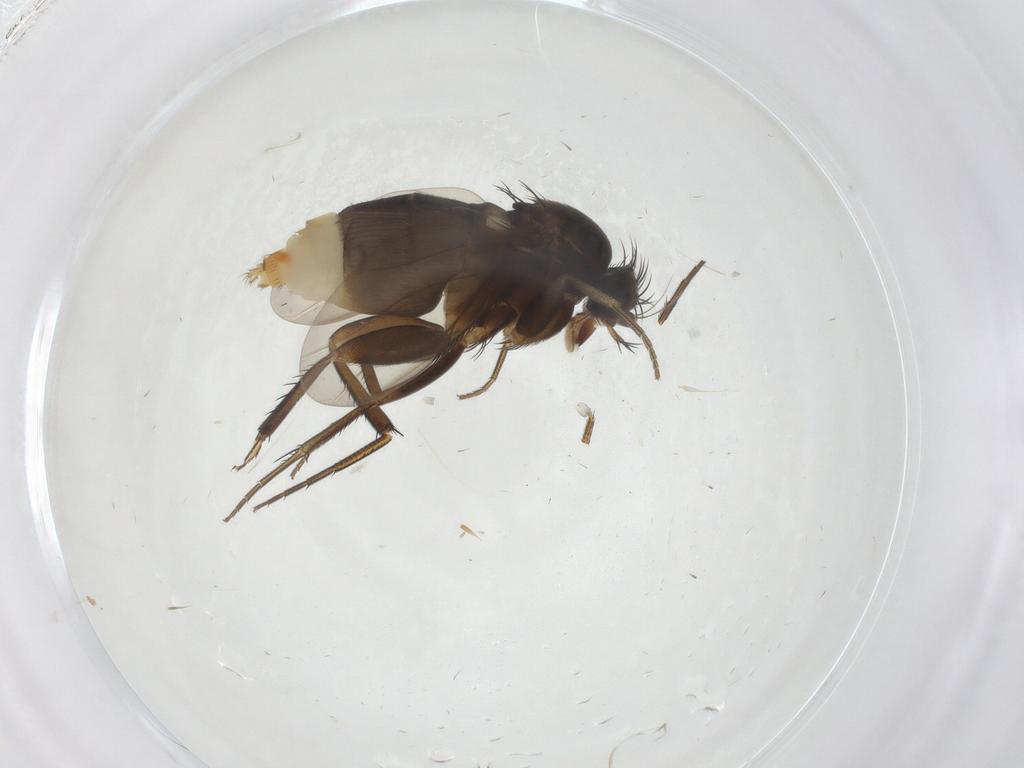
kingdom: Animalia
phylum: Arthropoda
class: Insecta
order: Diptera
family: Phoridae
